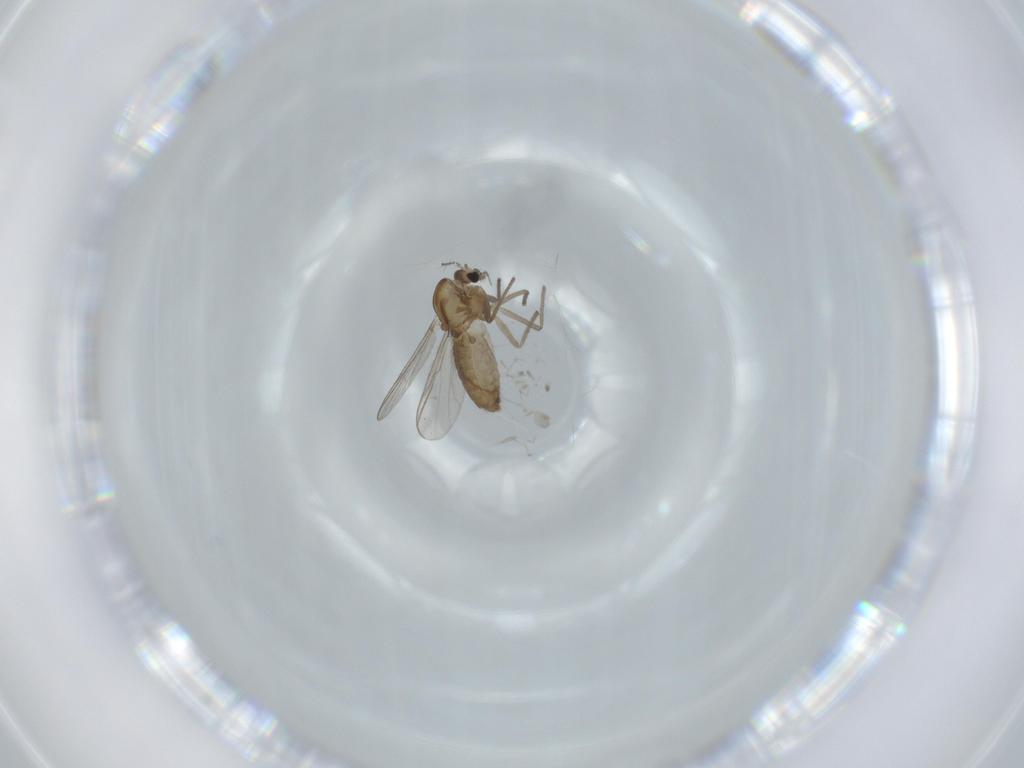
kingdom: Animalia
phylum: Arthropoda
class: Insecta
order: Diptera
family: Chironomidae
